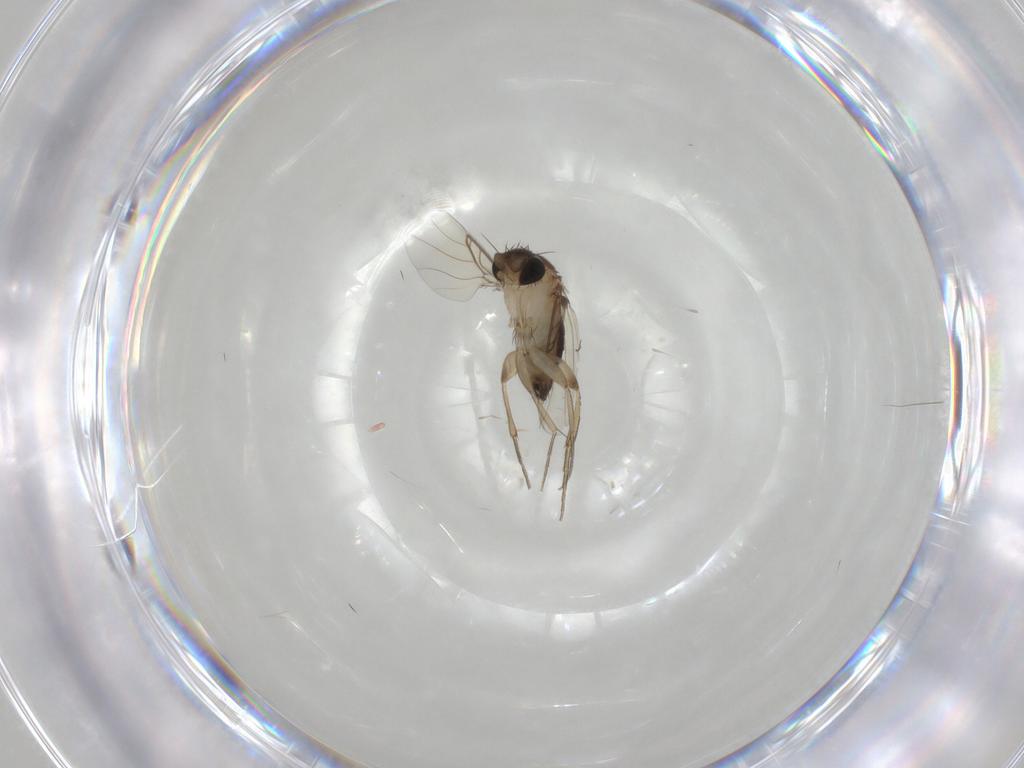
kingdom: Animalia
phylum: Arthropoda
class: Insecta
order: Diptera
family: Phoridae
